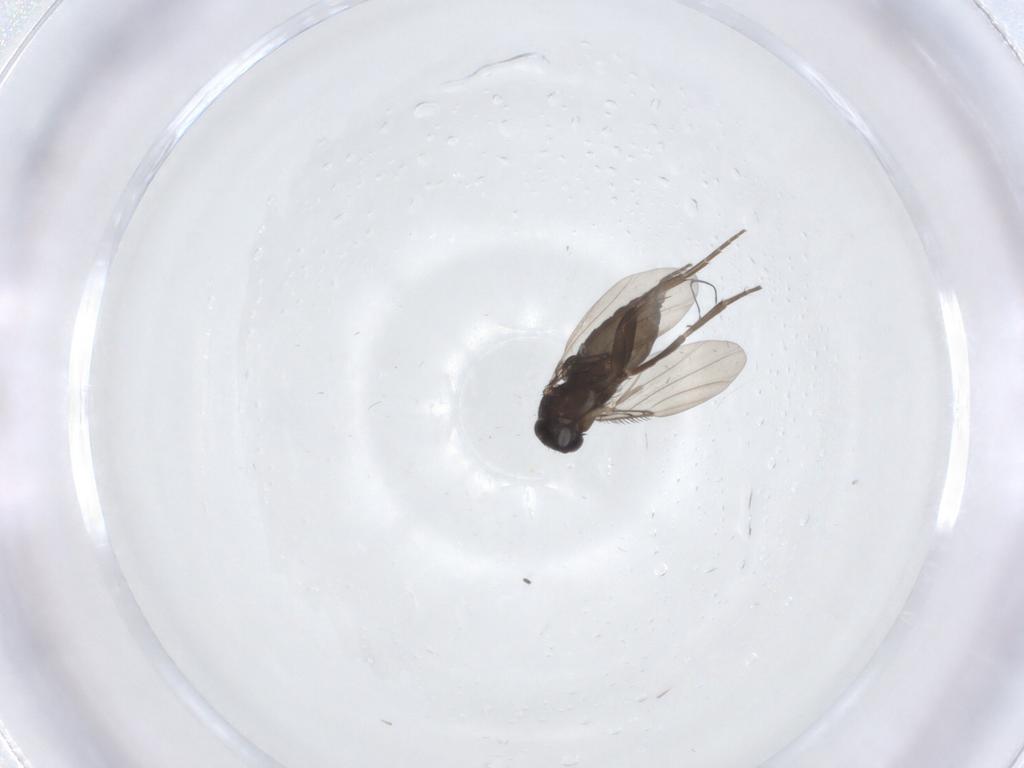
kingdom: Animalia
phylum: Arthropoda
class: Insecta
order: Diptera
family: Phoridae
